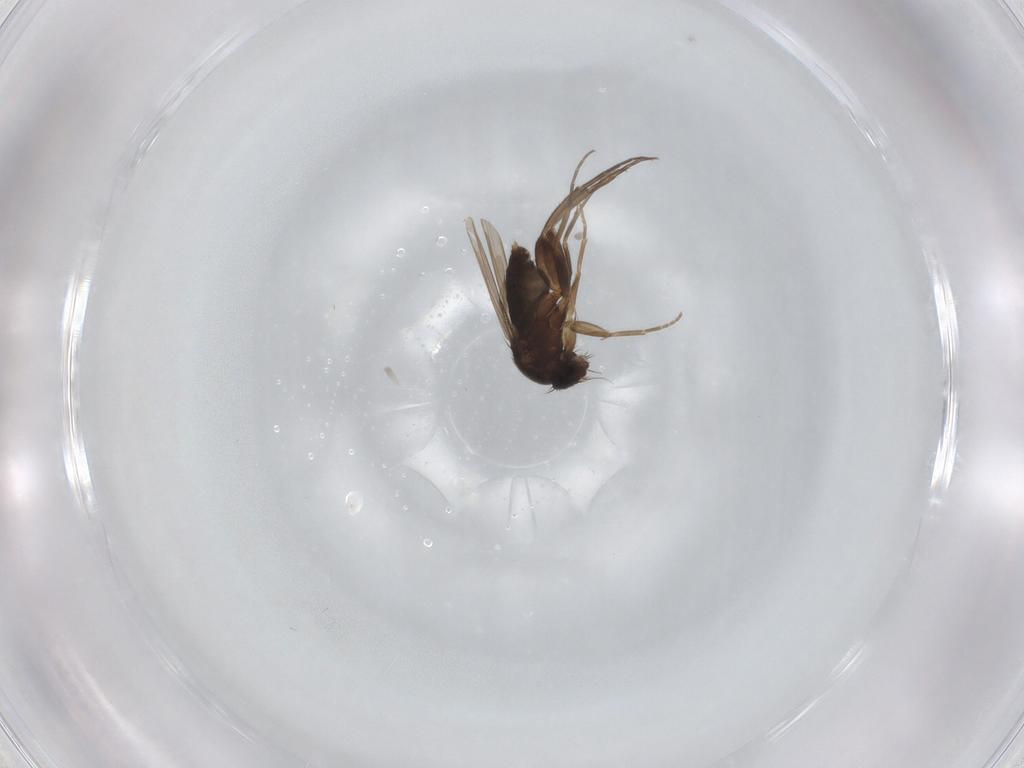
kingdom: Animalia
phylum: Arthropoda
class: Insecta
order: Diptera
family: Phoridae
